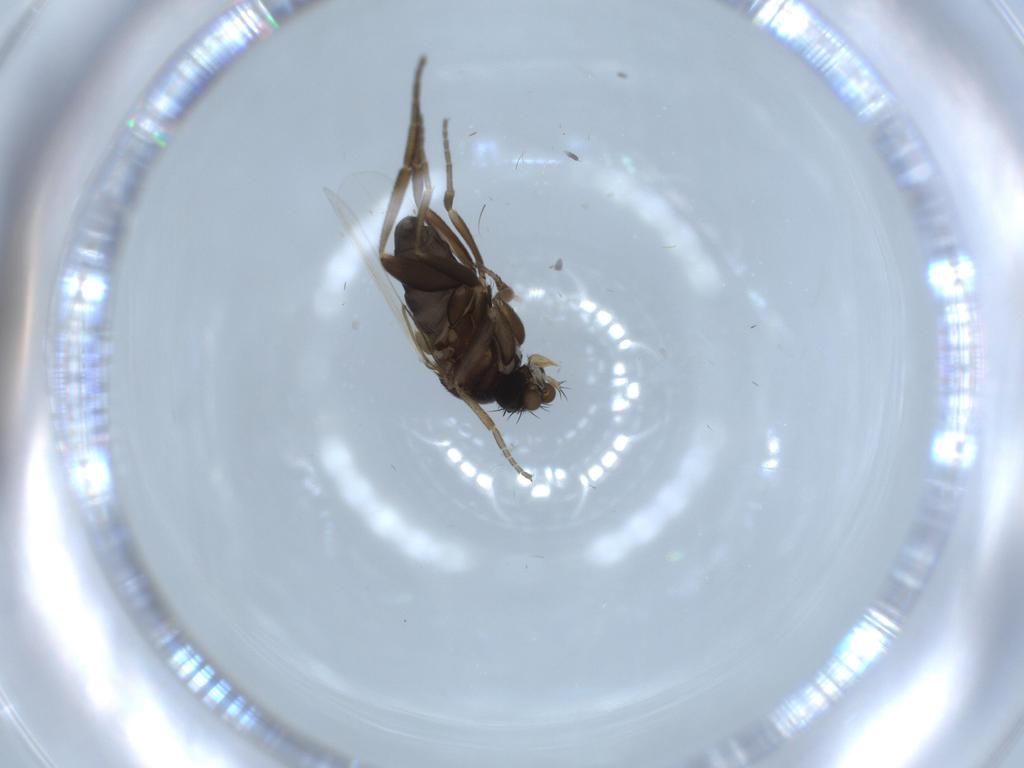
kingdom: Animalia
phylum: Arthropoda
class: Insecta
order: Diptera
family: Phoridae
